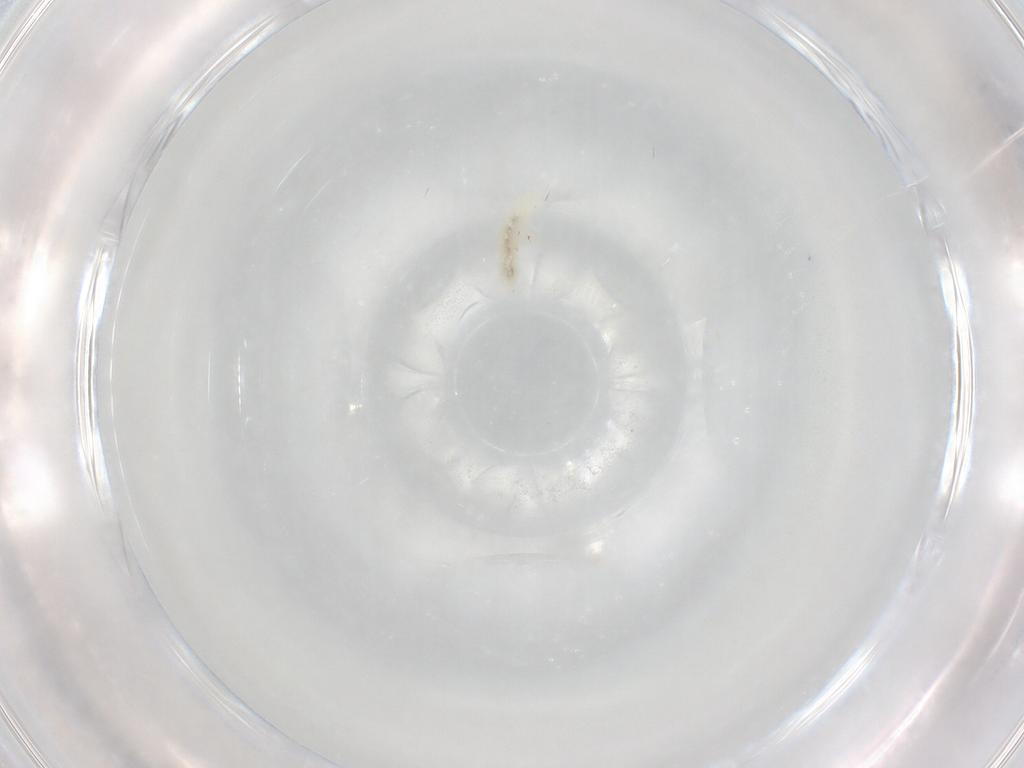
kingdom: Animalia
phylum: Arthropoda
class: Collembola
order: Poduromorpha
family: Onychiuridae
